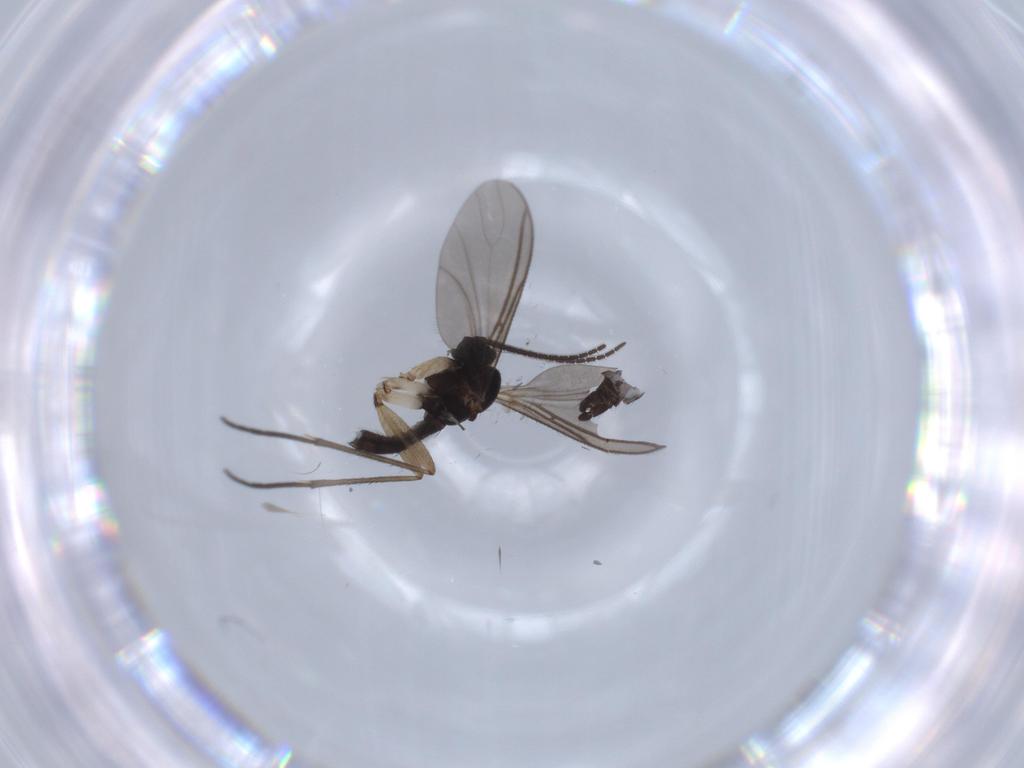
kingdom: Animalia
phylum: Arthropoda
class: Insecta
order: Diptera
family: Sciaridae
